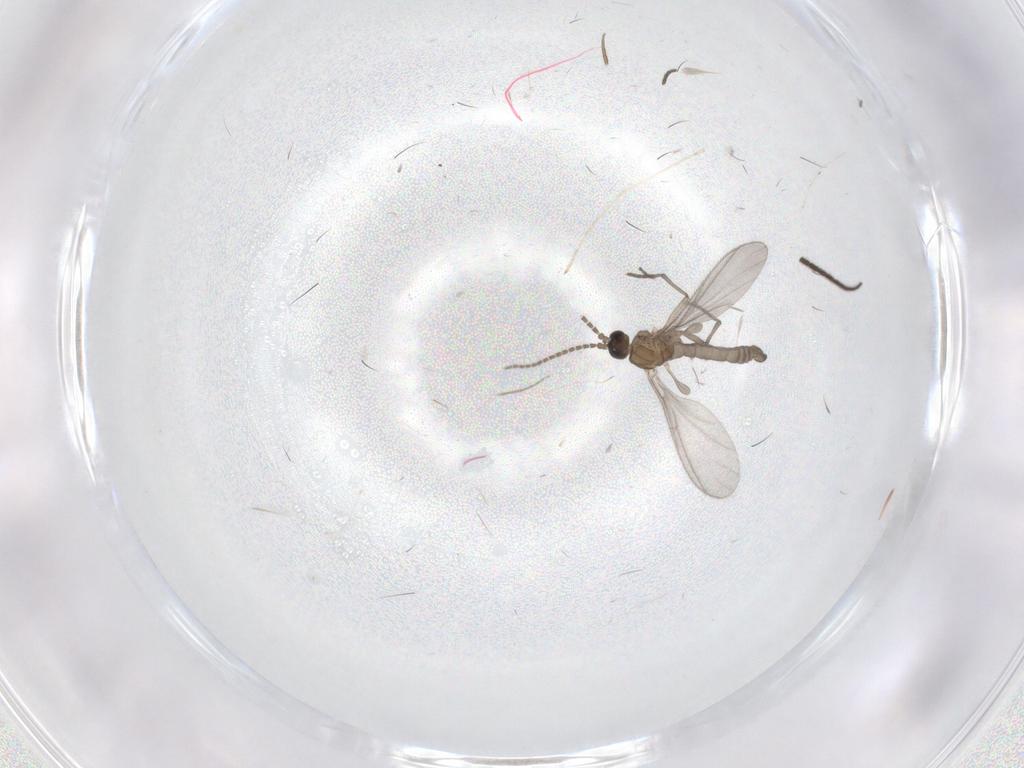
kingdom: Animalia
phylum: Arthropoda
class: Insecta
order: Diptera
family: Sciaridae
